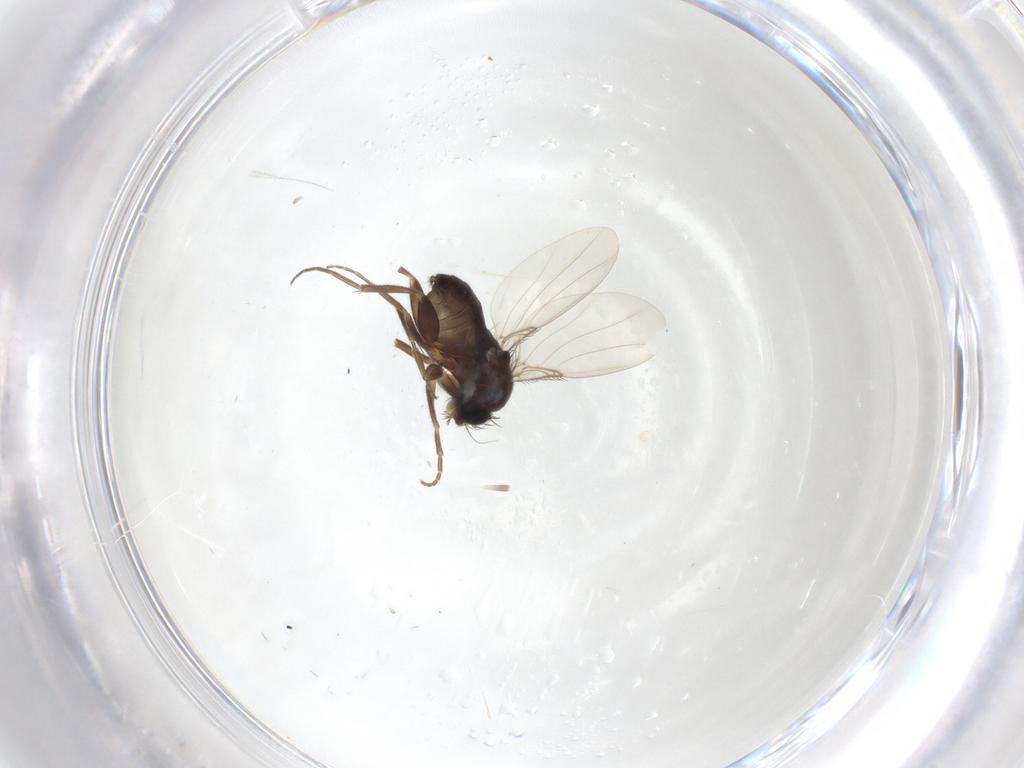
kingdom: Animalia
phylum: Arthropoda
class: Insecta
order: Diptera
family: Phoridae
